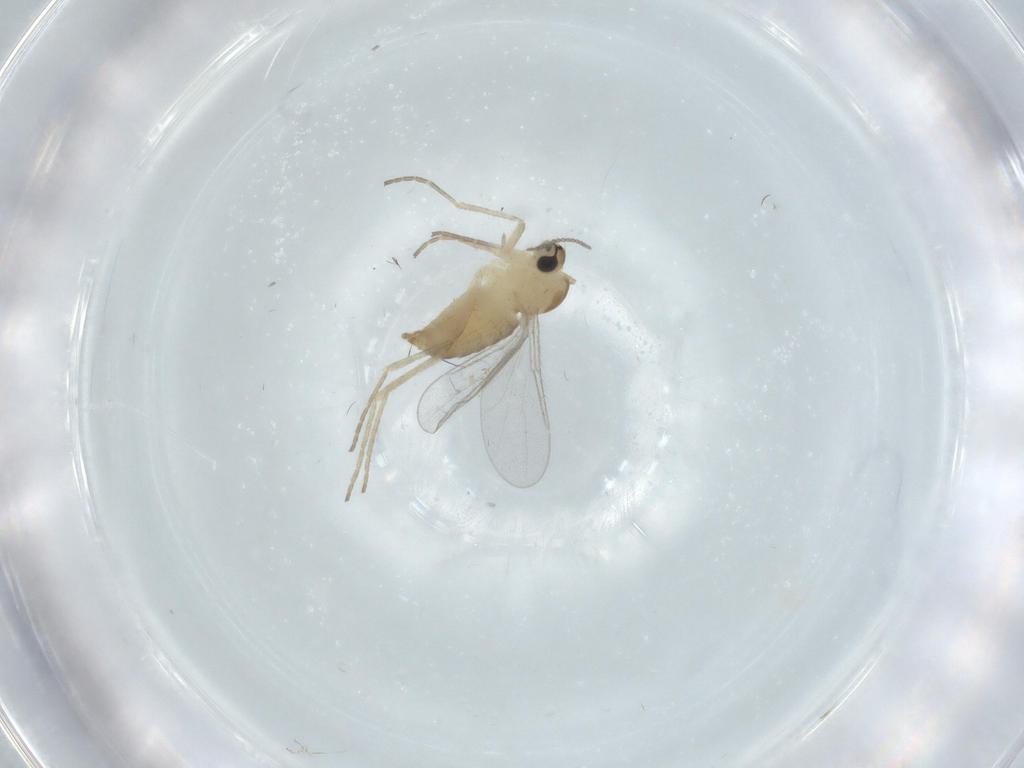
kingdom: Animalia
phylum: Arthropoda
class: Insecta
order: Diptera
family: Cecidomyiidae
